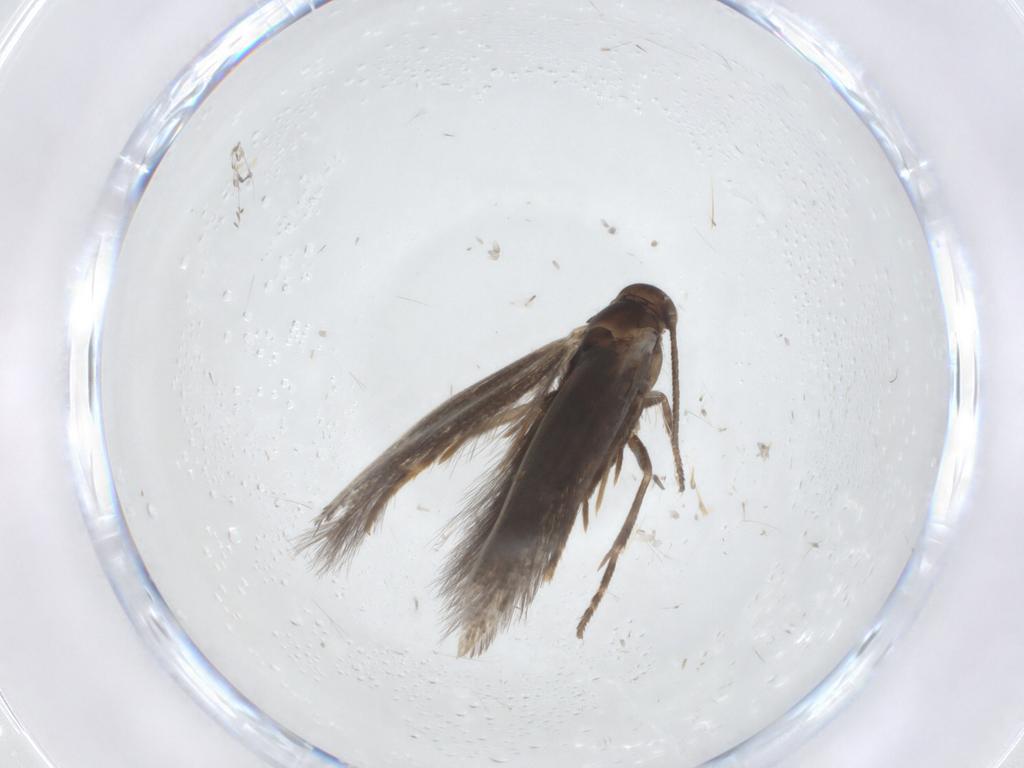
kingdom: Animalia
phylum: Arthropoda
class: Insecta
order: Lepidoptera
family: Elachistidae
